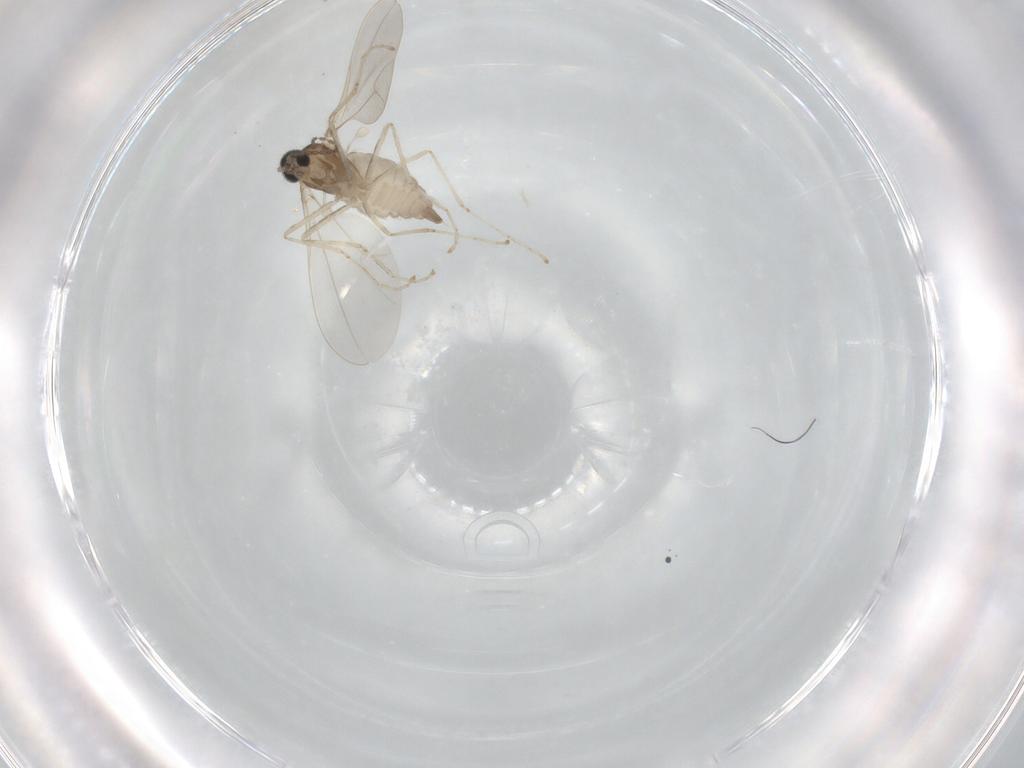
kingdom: Animalia
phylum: Arthropoda
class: Insecta
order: Diptera
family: Cecidomyiidae
